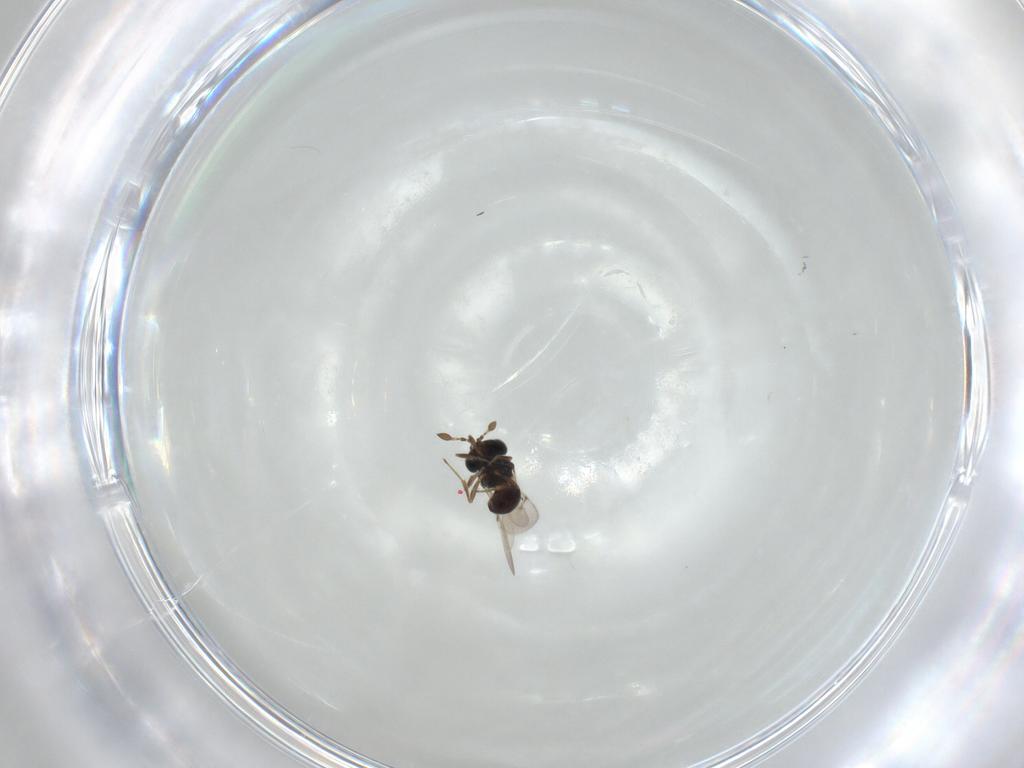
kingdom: Animalia
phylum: Arthropoda
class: Insecta
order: Hymenoptera
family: Scelionidae
